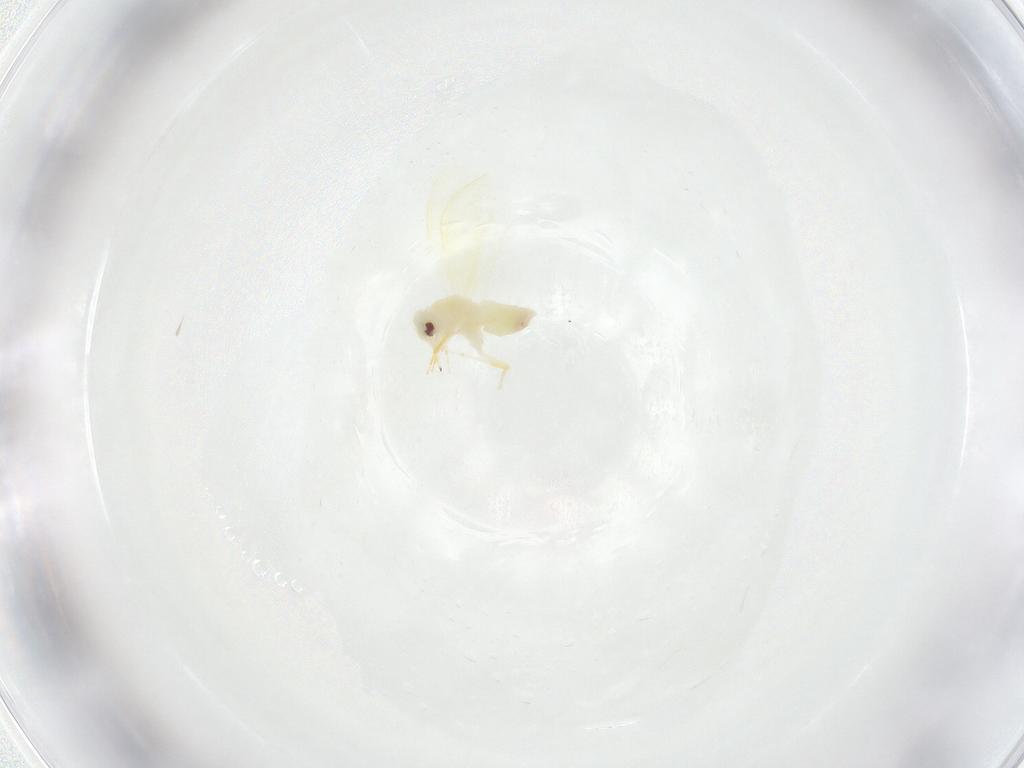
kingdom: Animalia
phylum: Arthropoda
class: Insecta
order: Hemiptera
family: Aleyrodidae
